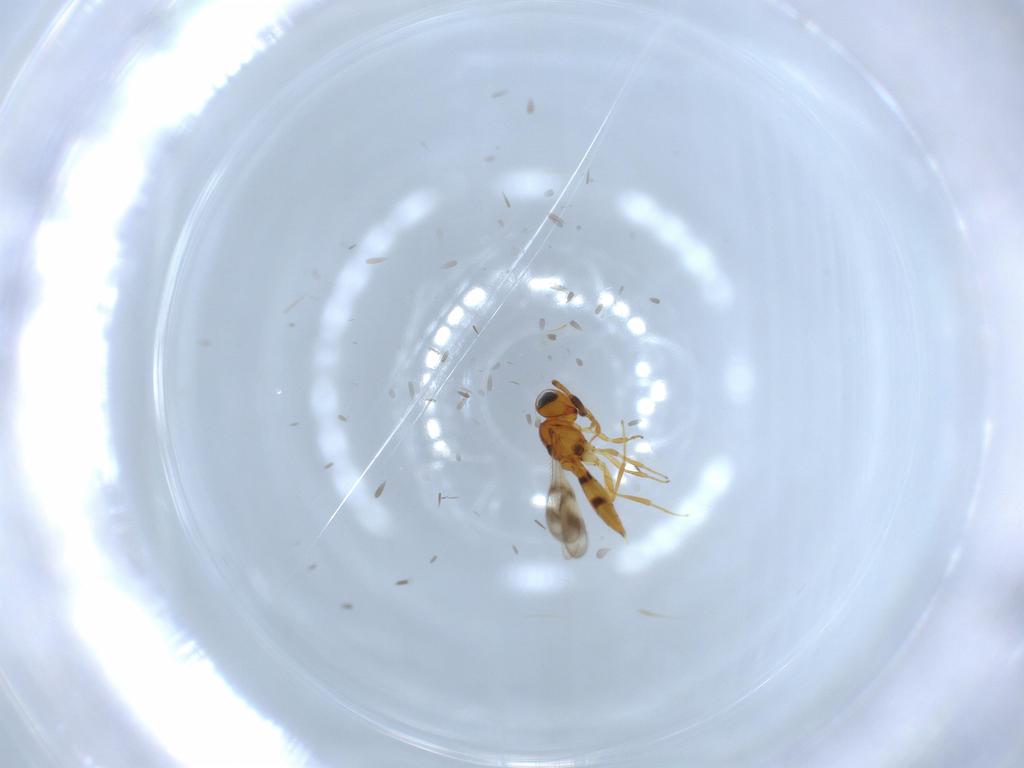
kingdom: Animalia
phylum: Arthropoda
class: Insecta
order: Hymenoptera
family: Scelionidae
